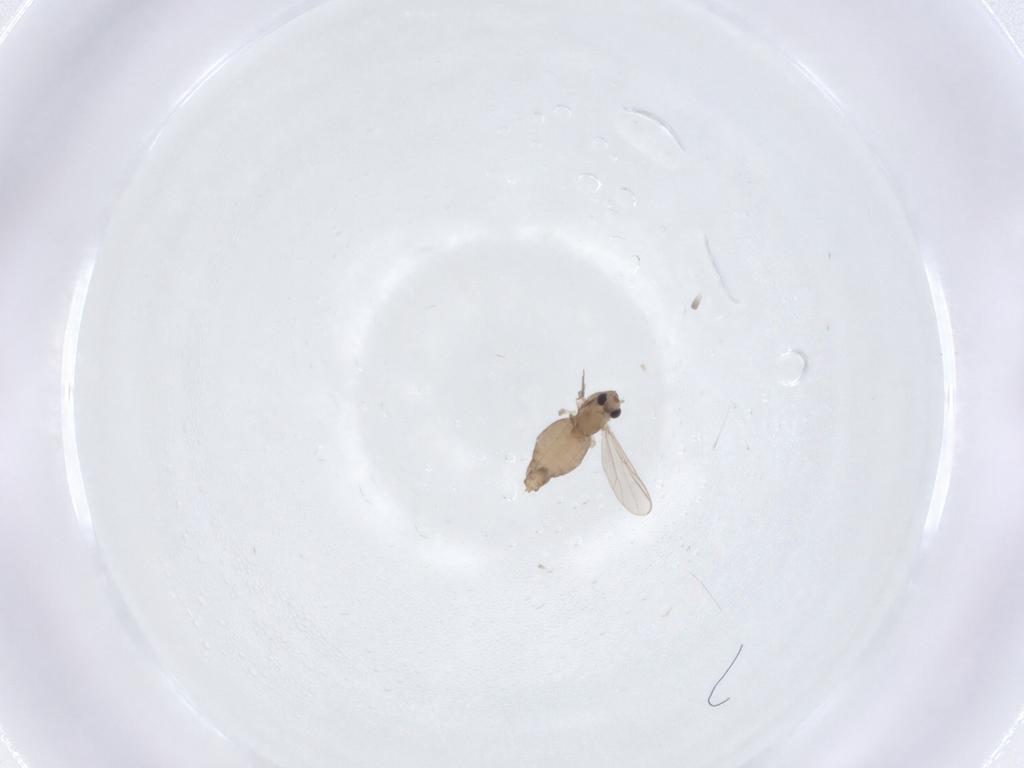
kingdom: Animalia
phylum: Arthropoda
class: Insecta
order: Diptera
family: Chironomidae
